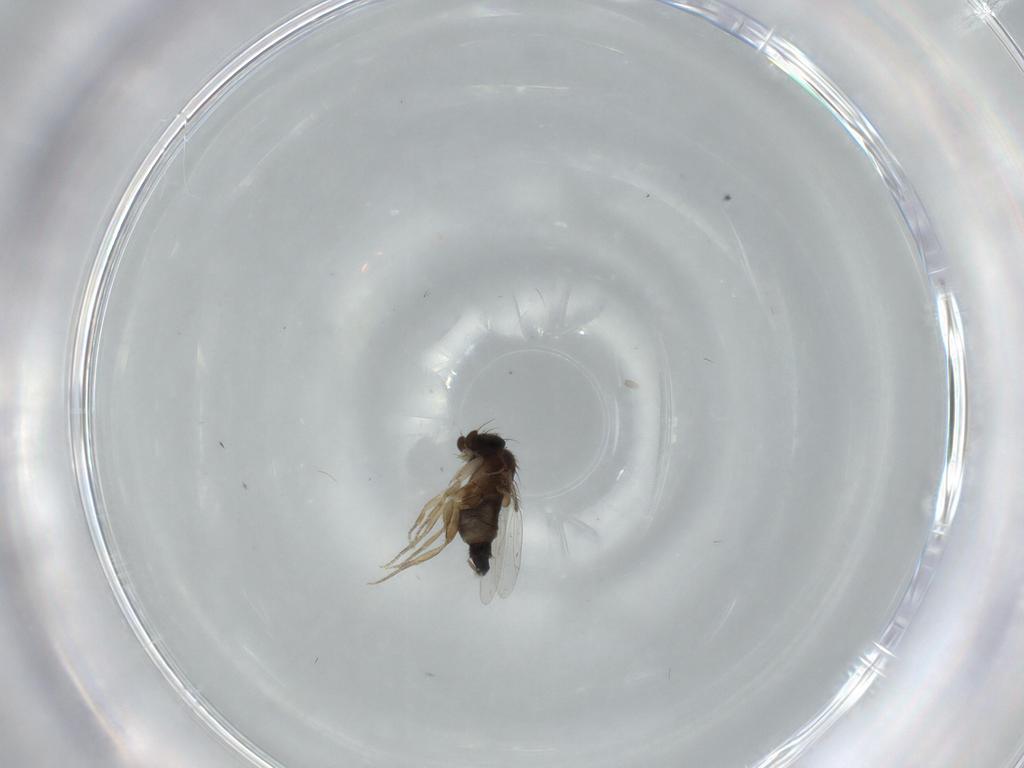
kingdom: Animalia
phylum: Arthropoda
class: Insecta
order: Diptera
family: Phoridae
